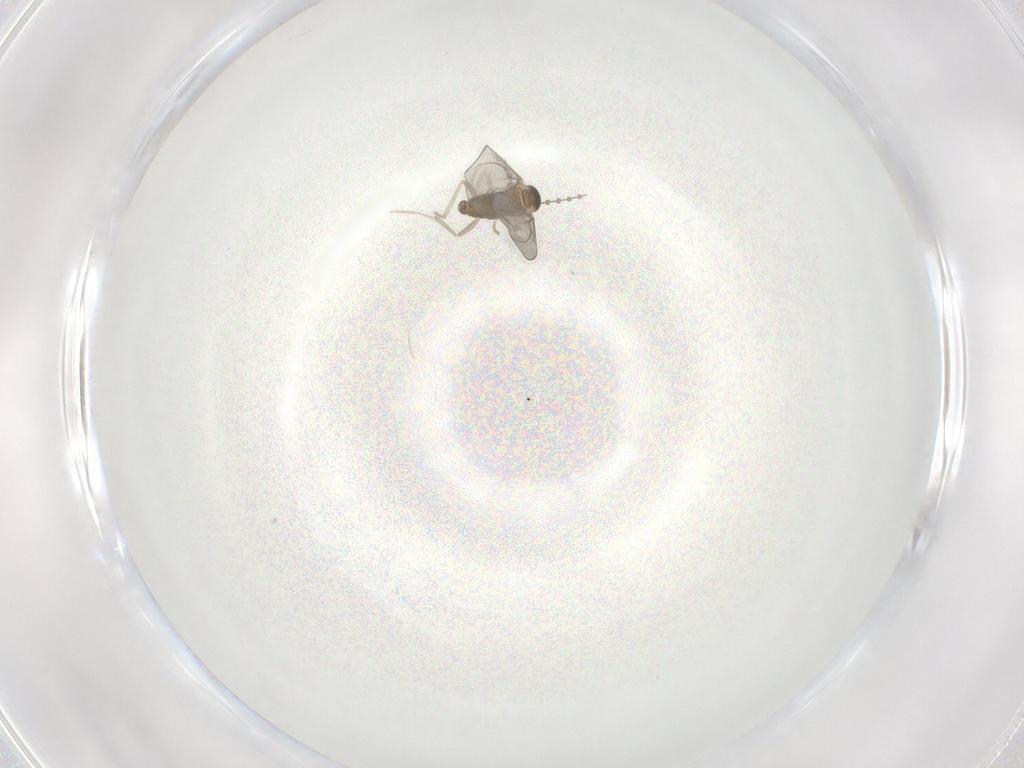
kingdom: Animalia
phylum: Arthropoda
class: Insecta
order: Diptera
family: Cecidomyiidae
